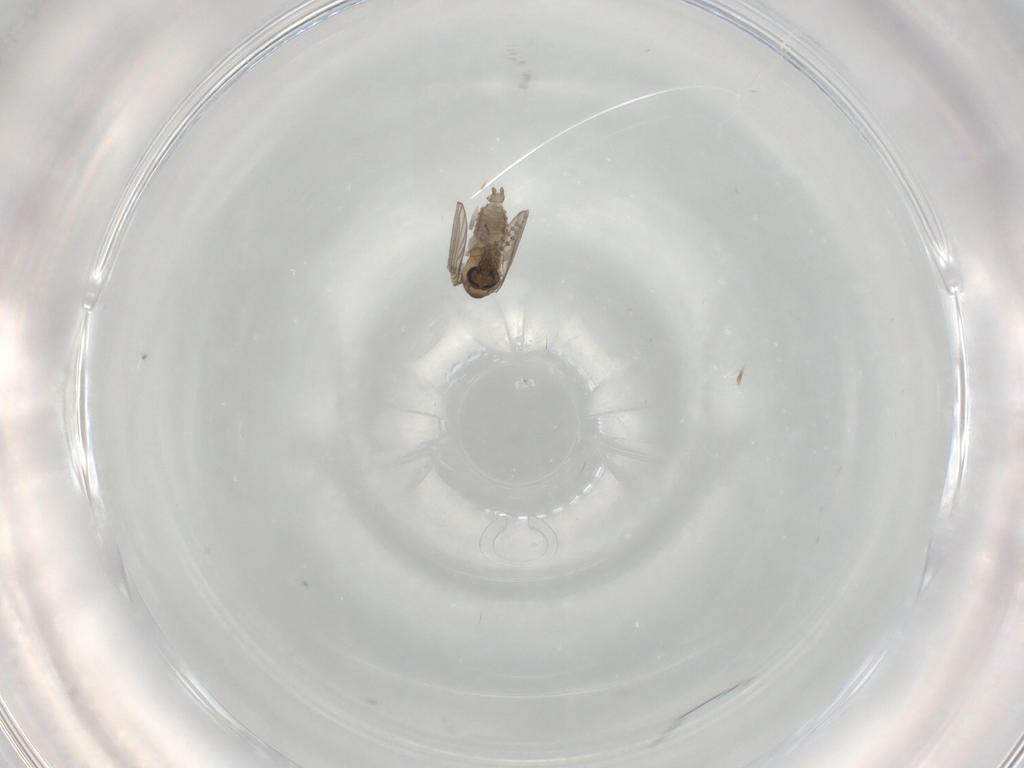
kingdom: Animalia
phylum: Arthropoda
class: Insecta
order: Diptera
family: Psychodidae
